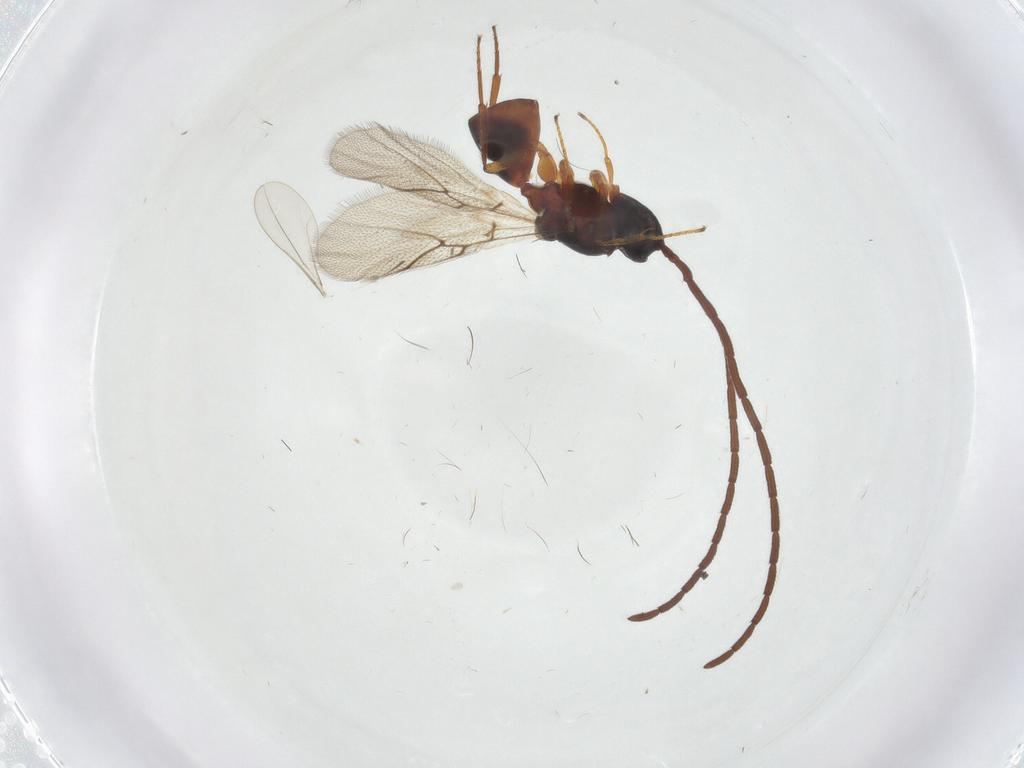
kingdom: Animalia
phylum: Arthropoda
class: Insecta
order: Hymenoptera
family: Figitidae
